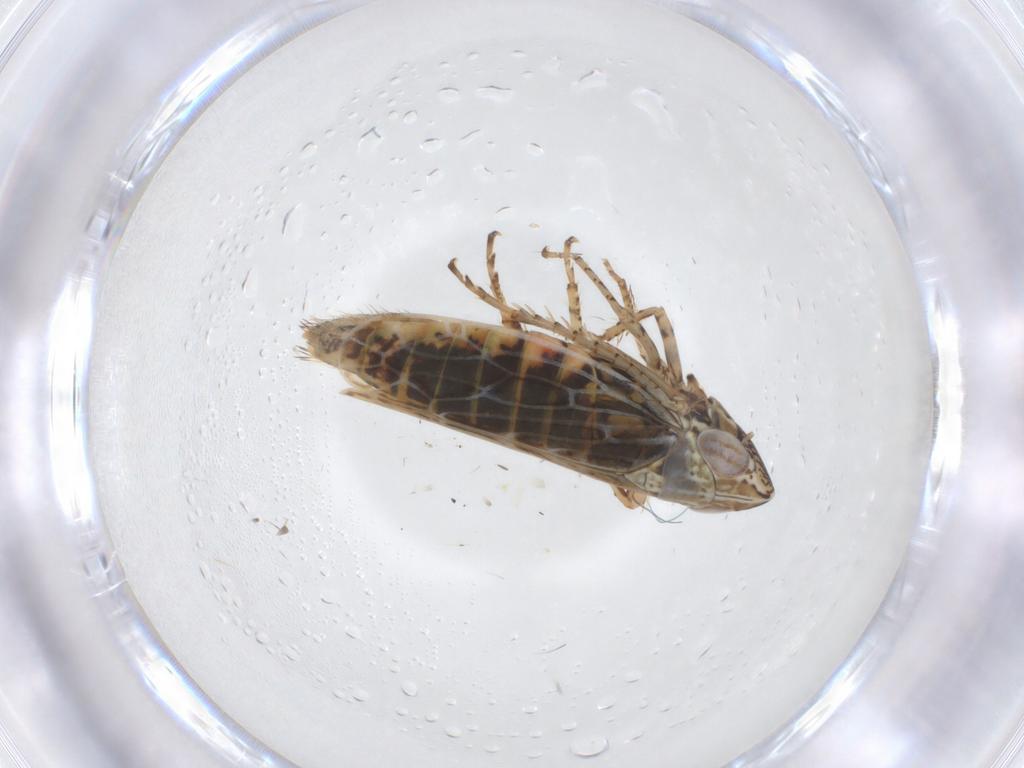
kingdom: Animalia
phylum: Arthropoda
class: Insecta
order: Hemiptera
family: Cicadellidae
